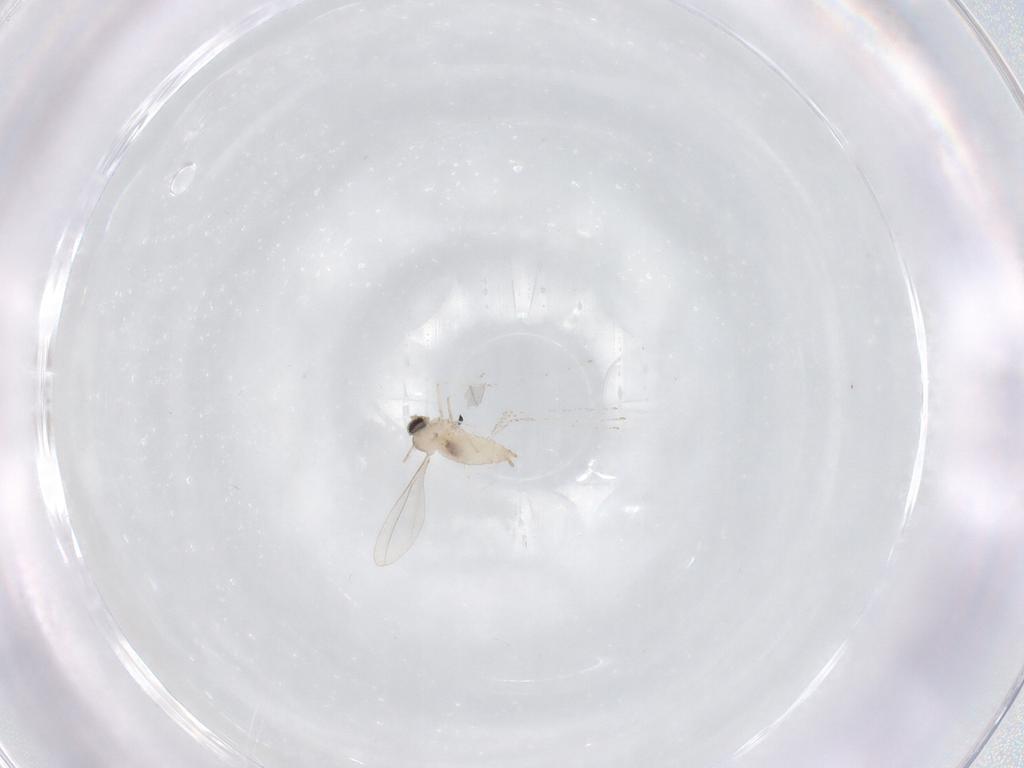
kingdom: Animalia
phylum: Arthropoda
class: Insecta
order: Diptera
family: Cecidomyiidae
